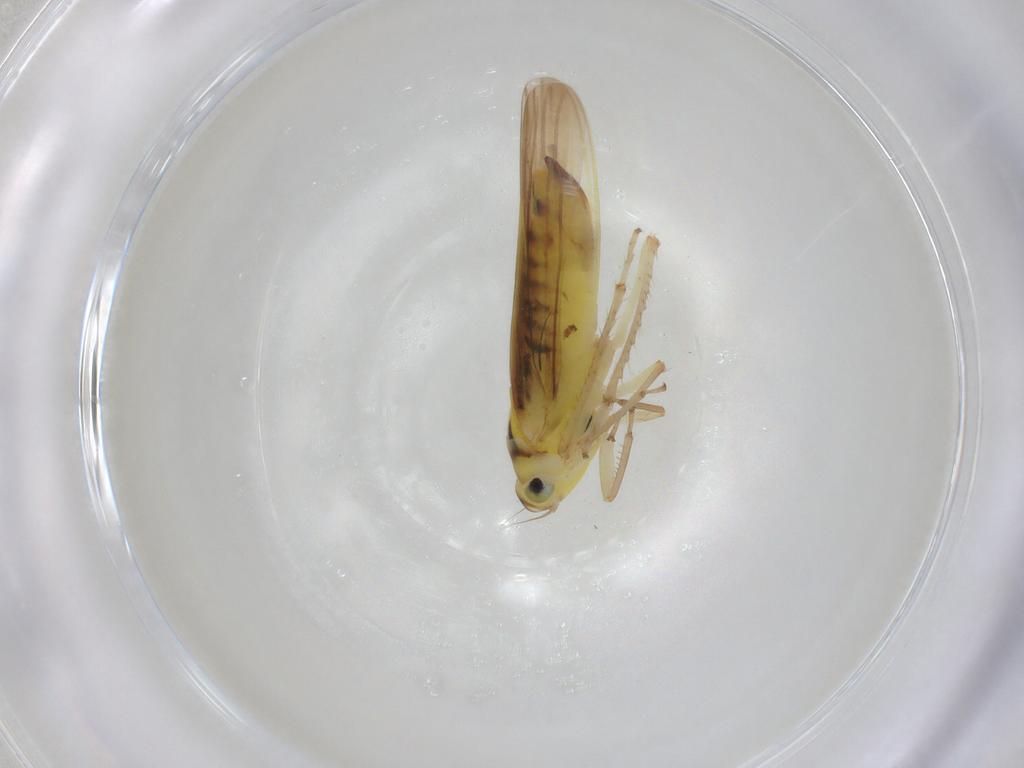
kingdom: Animalia
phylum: Arthropoda
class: Insecta
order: Hemiptera
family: Cicadellidae
